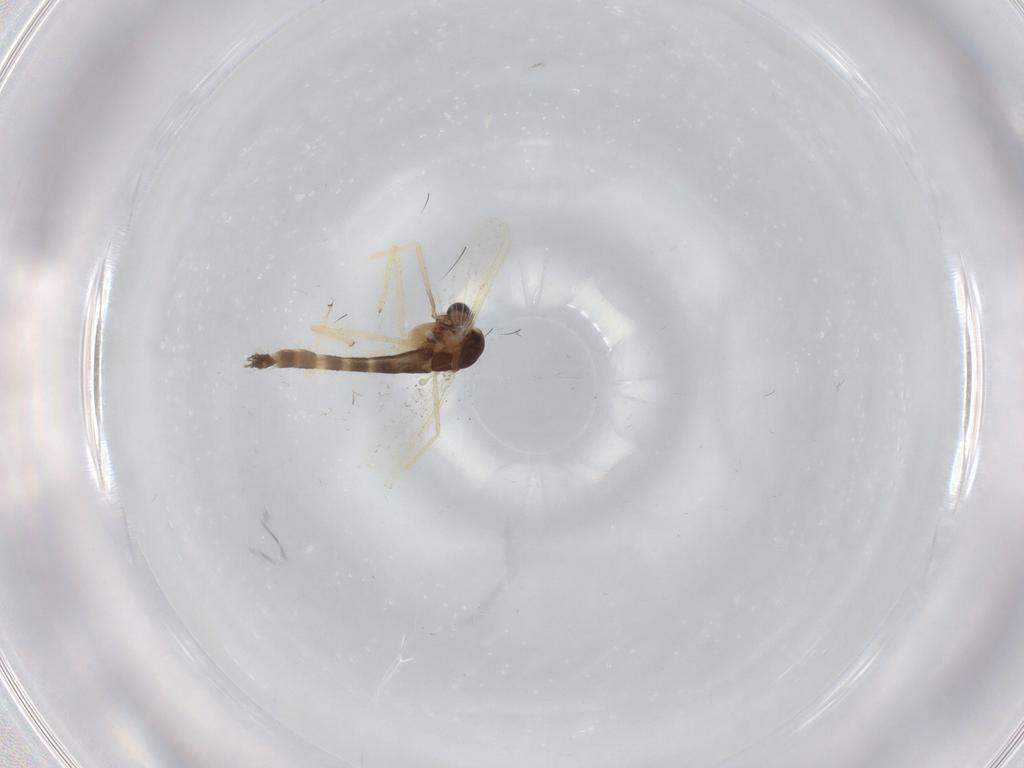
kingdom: Animalia
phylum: Arthropoda
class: Insecta
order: Diptera
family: Chironomidae
